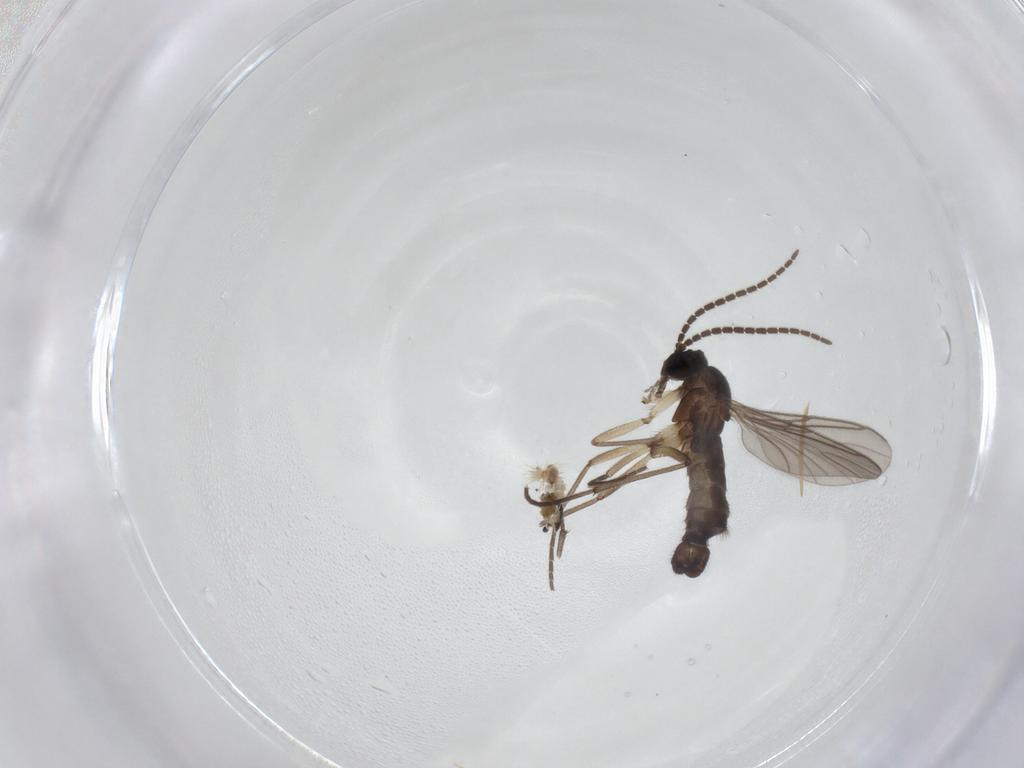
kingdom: Animalia
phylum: Arthropoda
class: Insecta
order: Diptera
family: Sciaridae
